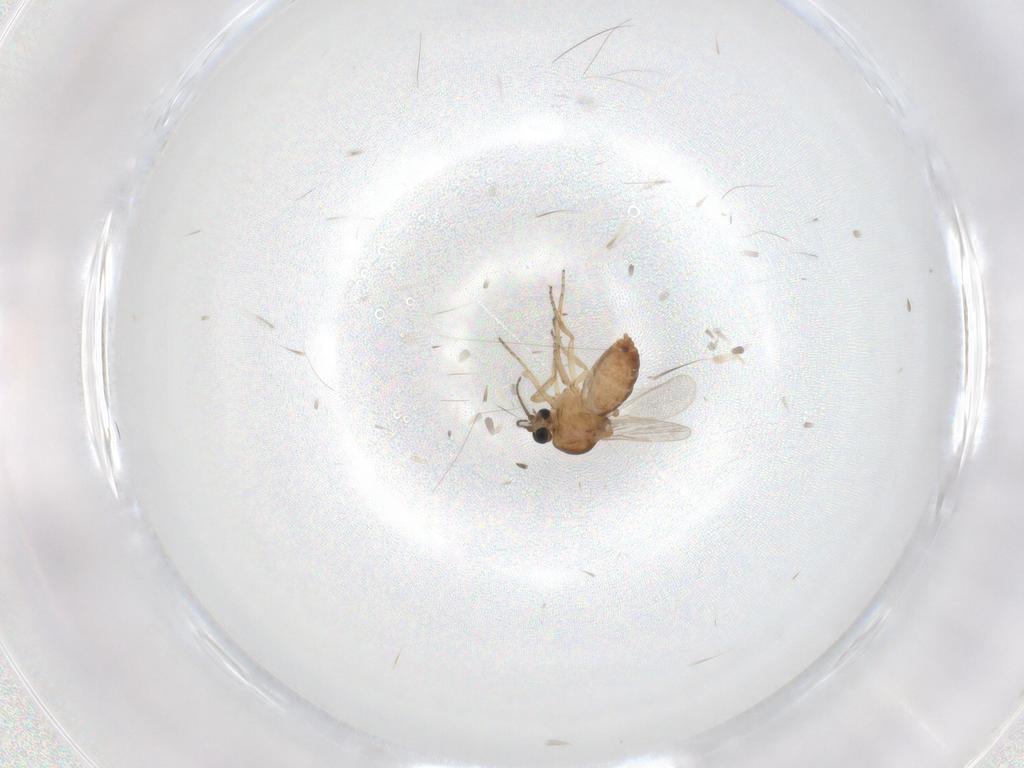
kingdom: Animalia
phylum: Arthropoda
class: Insecta
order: Diptera
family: Ceratopogonidae
